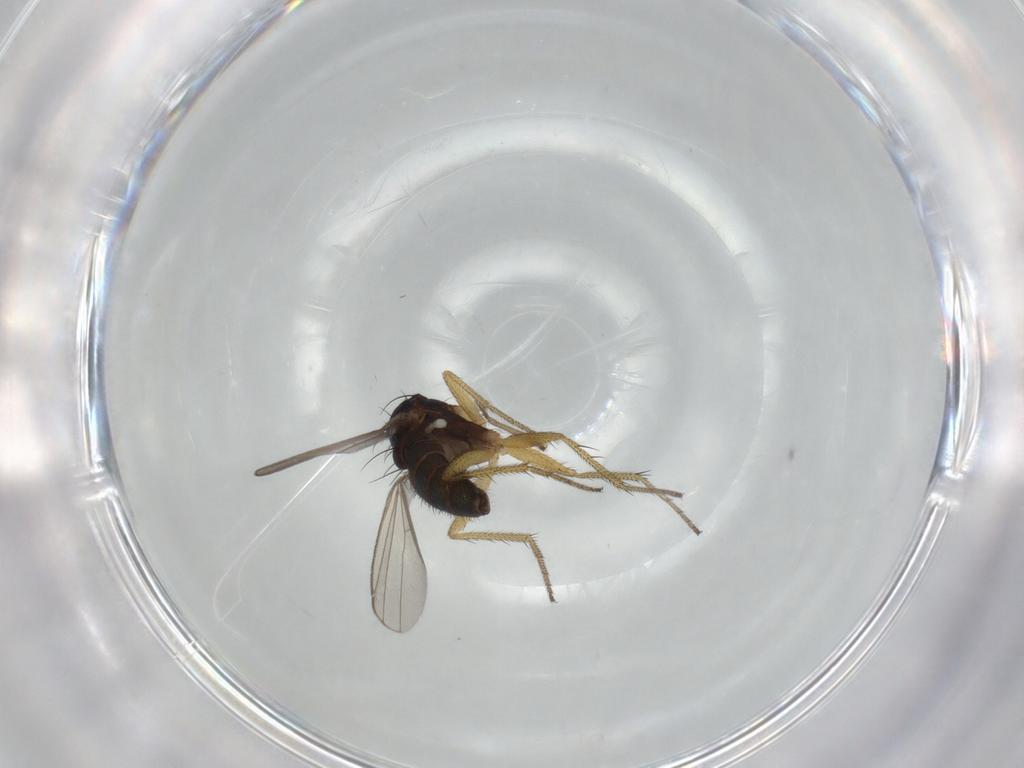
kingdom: Animalia
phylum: Arthropoda
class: Insecta
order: Diptera
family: Dolichopodidae
